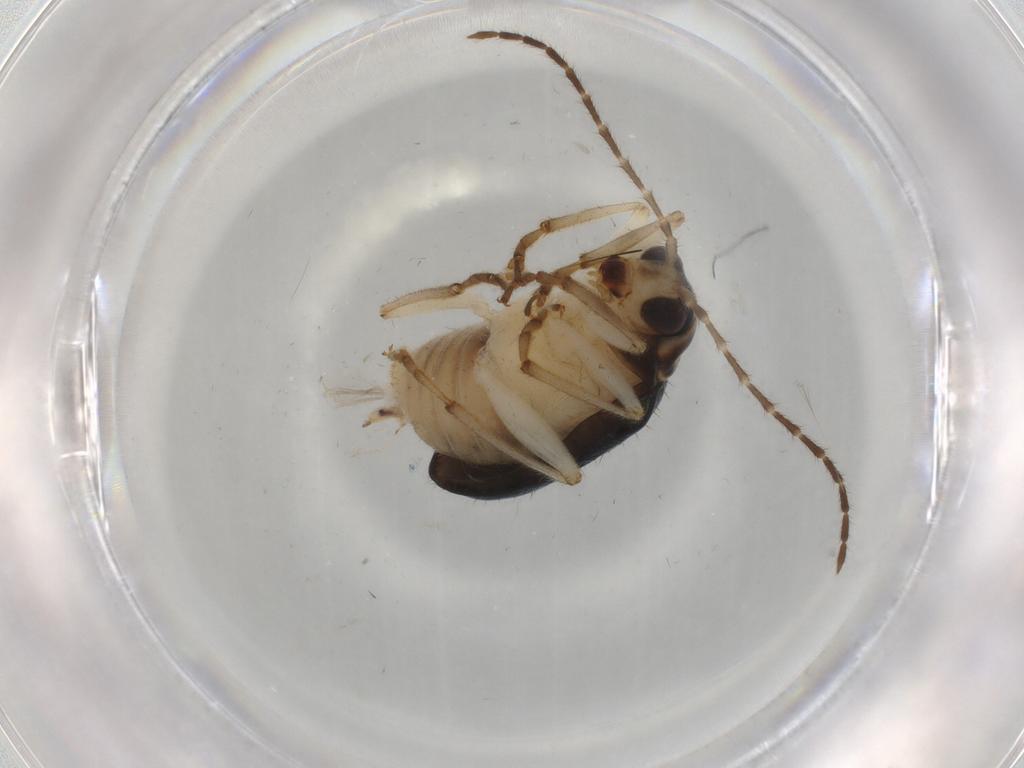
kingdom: Animalia
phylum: Arthropoda
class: Insecta
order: Coleoptera
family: Chrysomelidae
